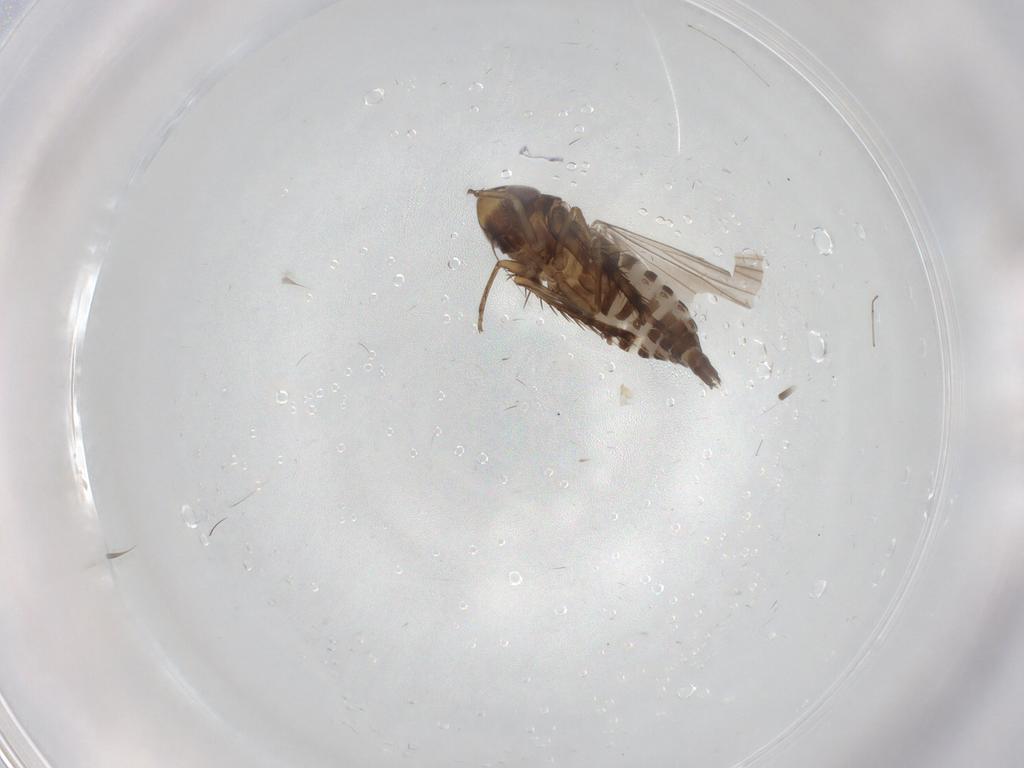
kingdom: Animalia
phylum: Arthropoda
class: Insecta
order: Hemiptera
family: Cicadellidae
